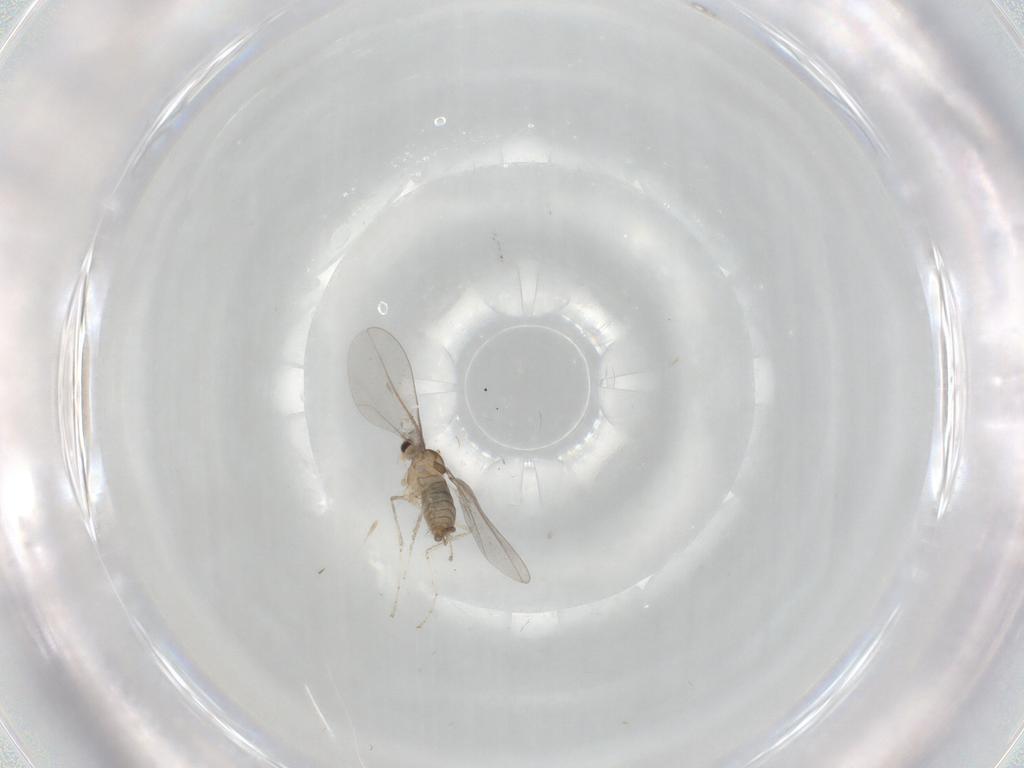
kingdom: Animalia
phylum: Arthropoda
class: Insecta
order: Diptera
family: Cecidomyiidae
